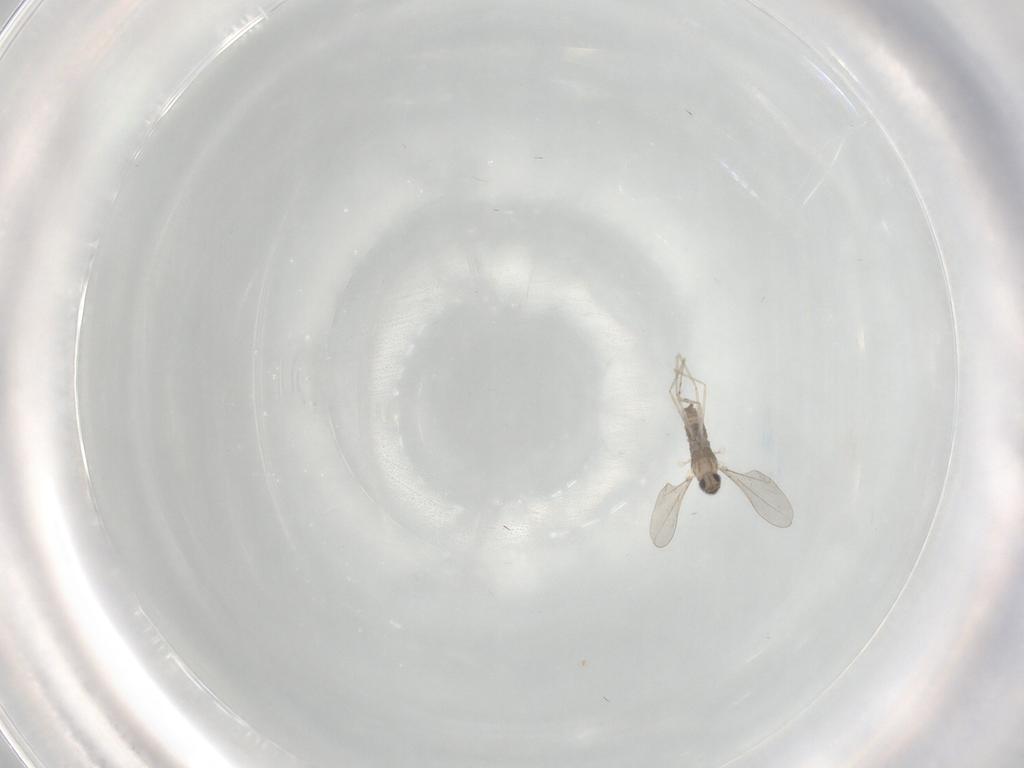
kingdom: Animalia
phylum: Arthropoda
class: Insecta
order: Diptera
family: Cecidomyiidae
